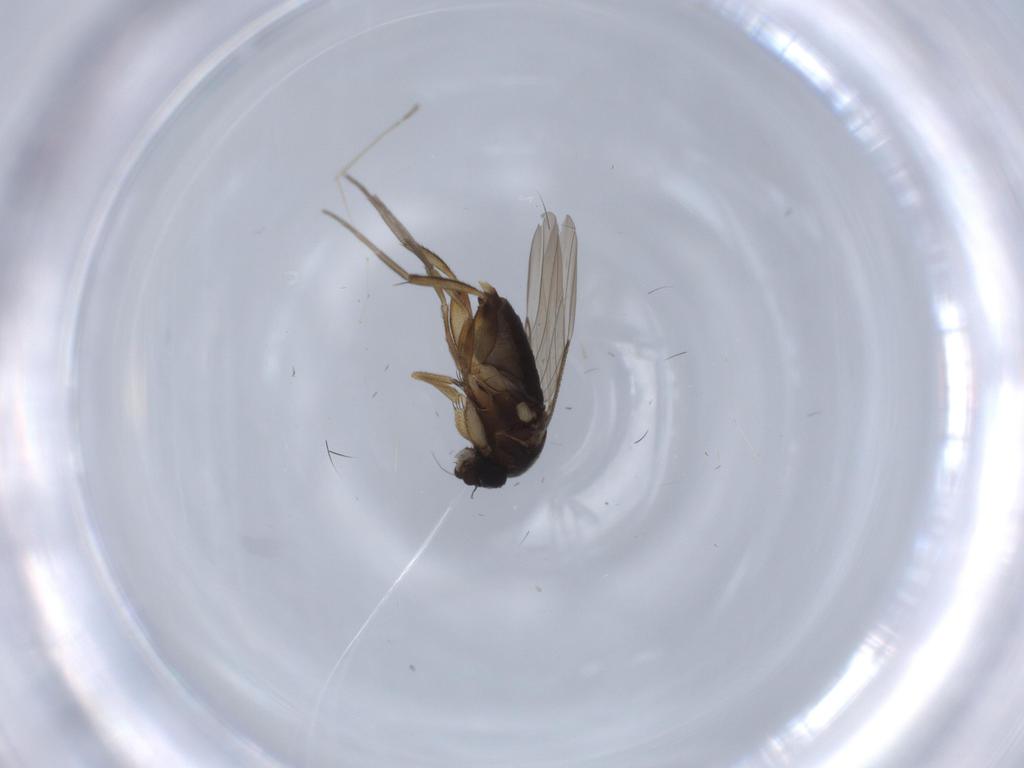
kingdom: Animalia
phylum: Arthropoda
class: Insecta
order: Diptera
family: Phoridae
